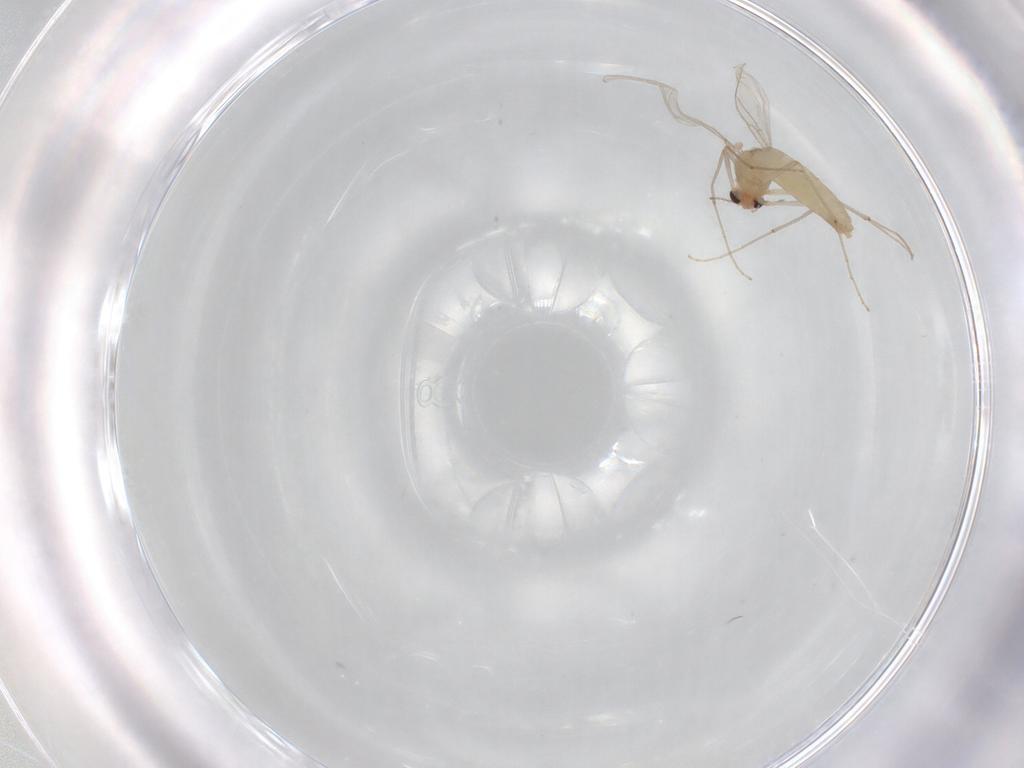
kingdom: Animalia
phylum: Arthropoda
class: Insecta
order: Diptera
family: Chironomidae
